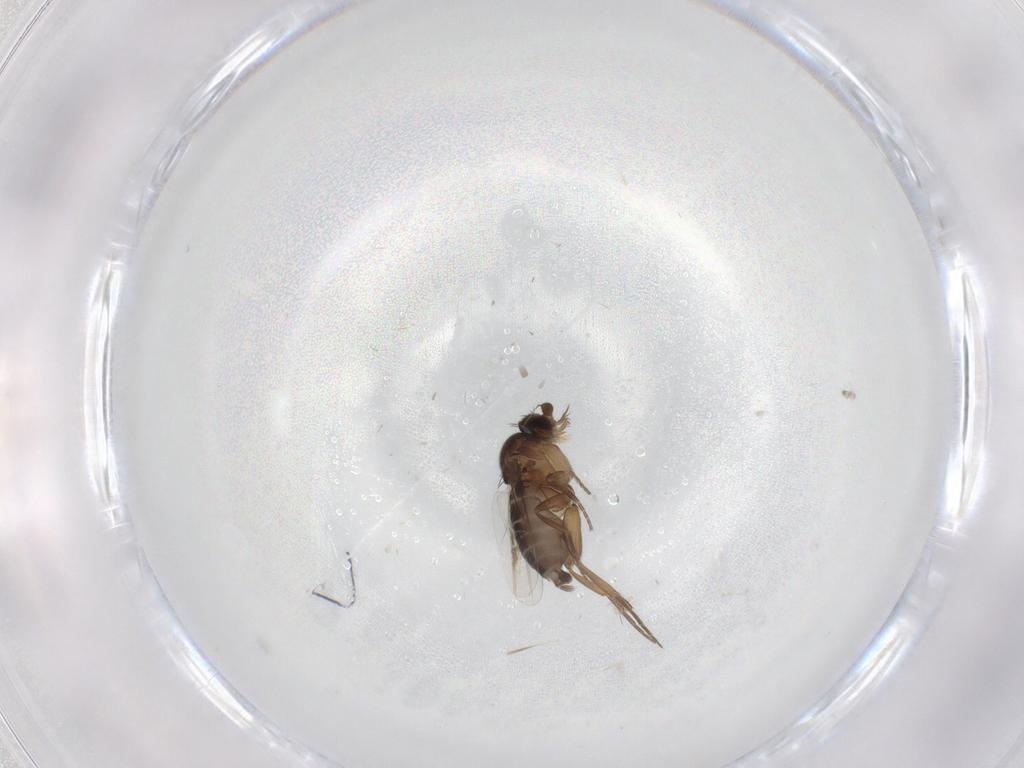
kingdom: Animalia
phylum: Arthropoda
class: Insecta
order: Diptera
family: Phoridae
